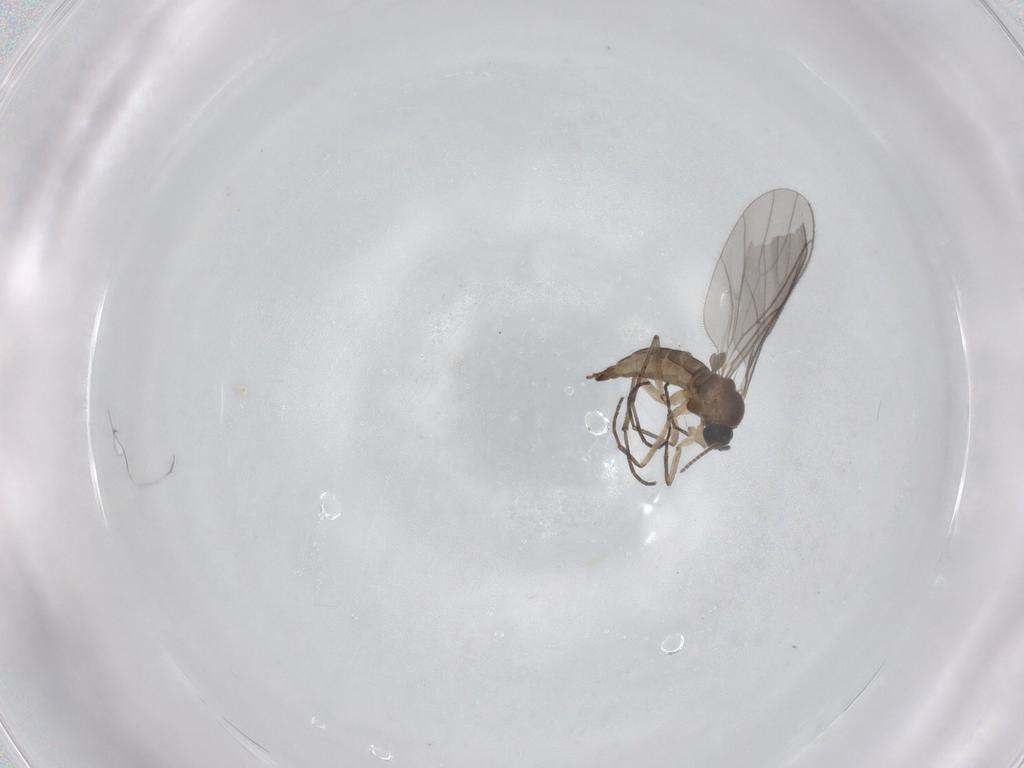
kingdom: Animalia
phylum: Arthropoda
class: Insecta
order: Diptera
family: Sciaridae
